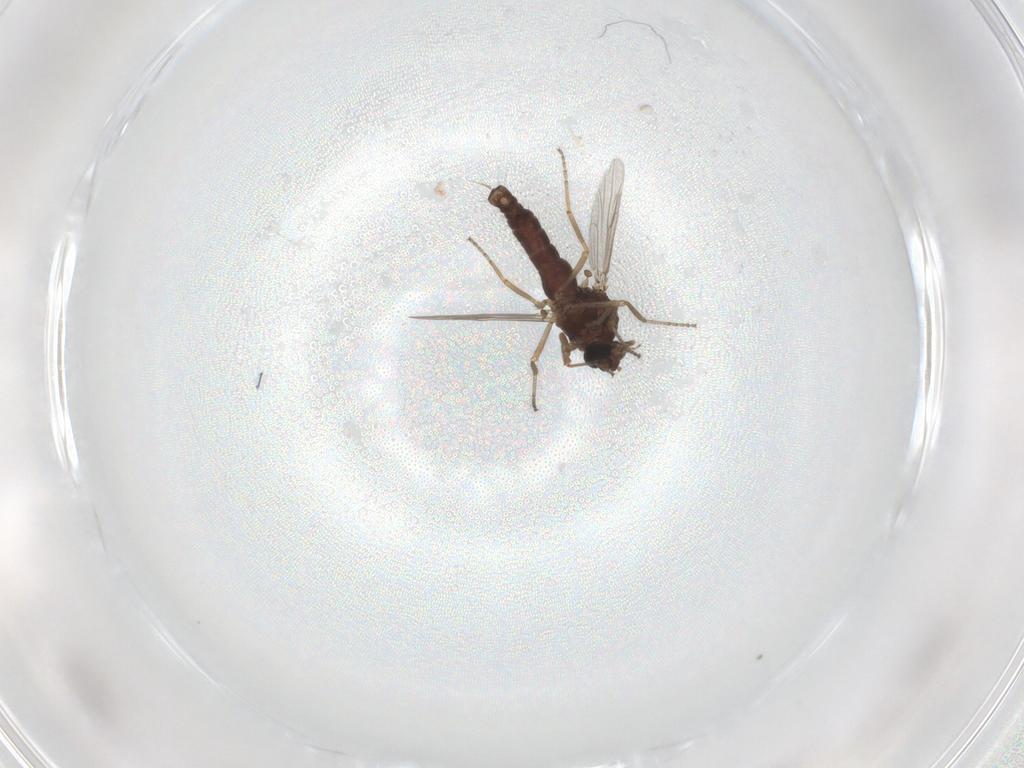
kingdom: Animalia
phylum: Arthropoda
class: Insecta
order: Diptera
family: Ceratopogonidae
